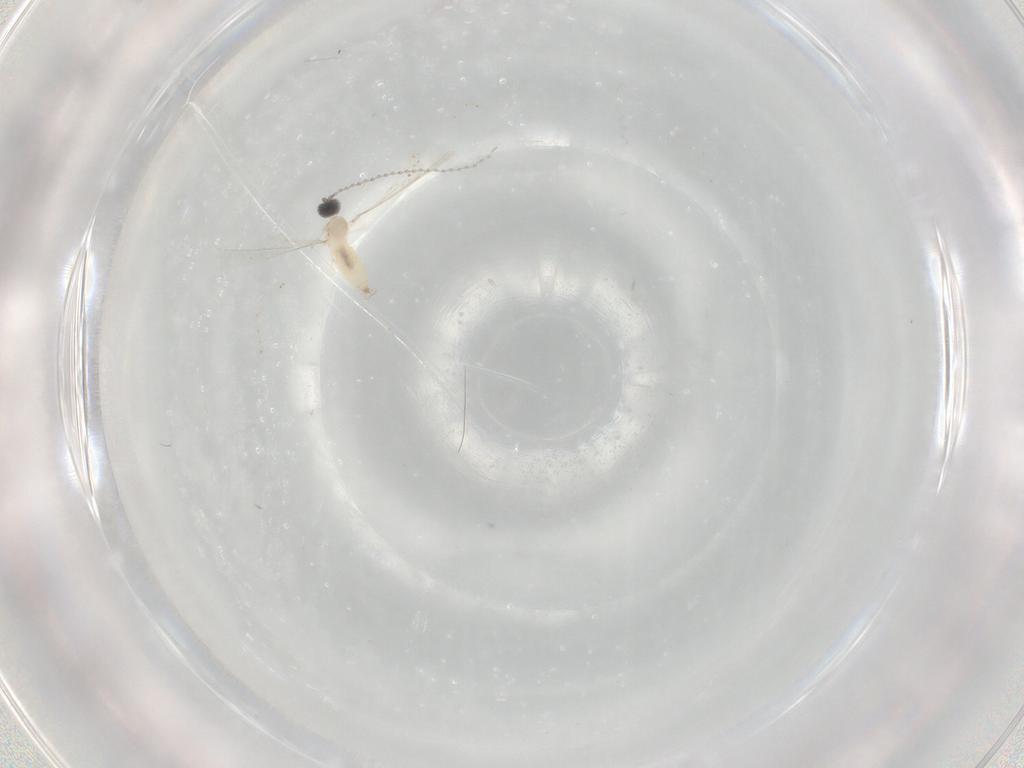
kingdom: Animalia
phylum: Arthropoda
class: Insecta
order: Diptera
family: Cecidomyiidae
